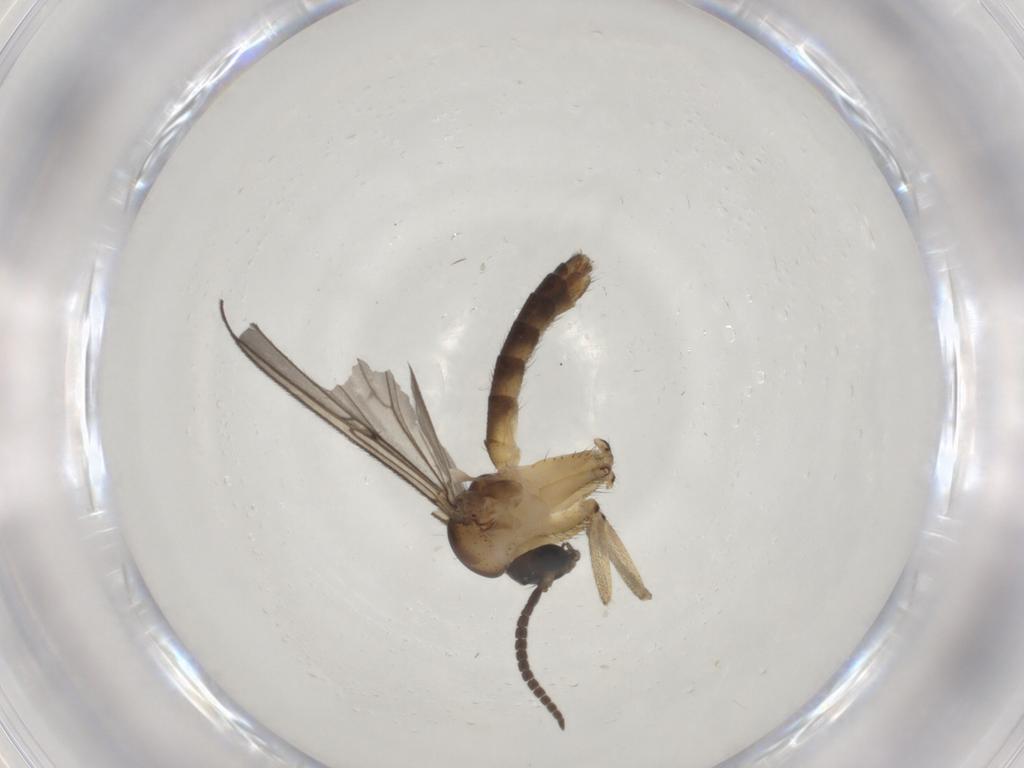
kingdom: Animalia
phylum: Arthropoda
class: Insecta
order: Diptera
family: Mycetophilidae
